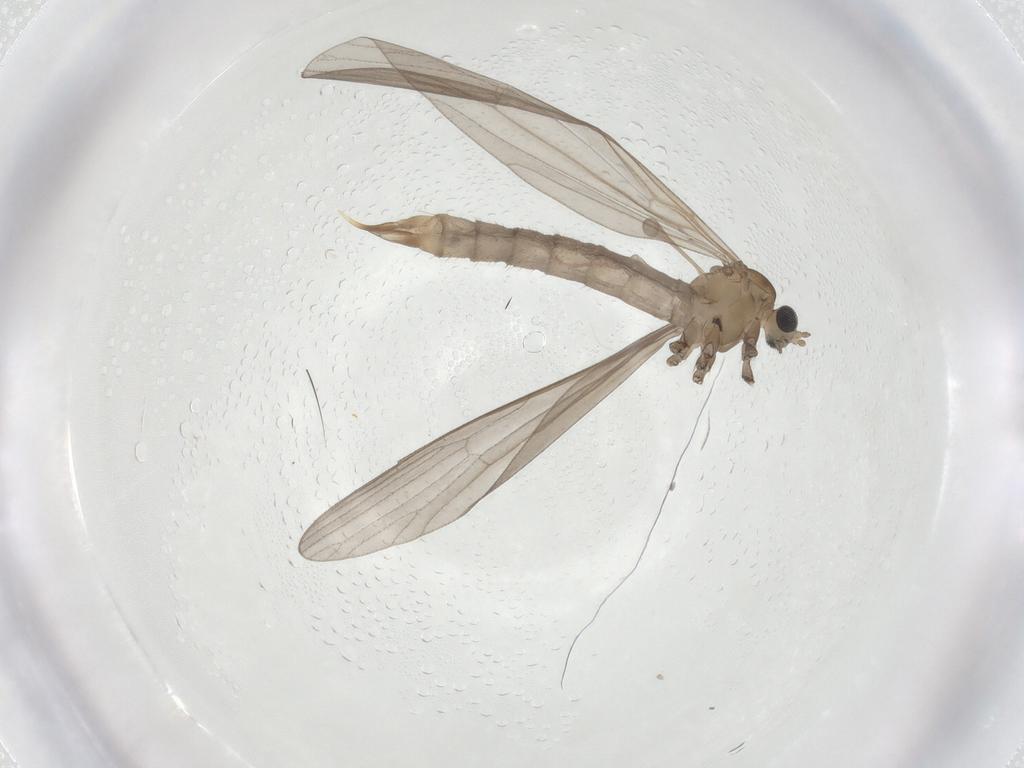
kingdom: Animalia
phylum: Arthropoda
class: Insecta
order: Diptera
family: Limoniidae
